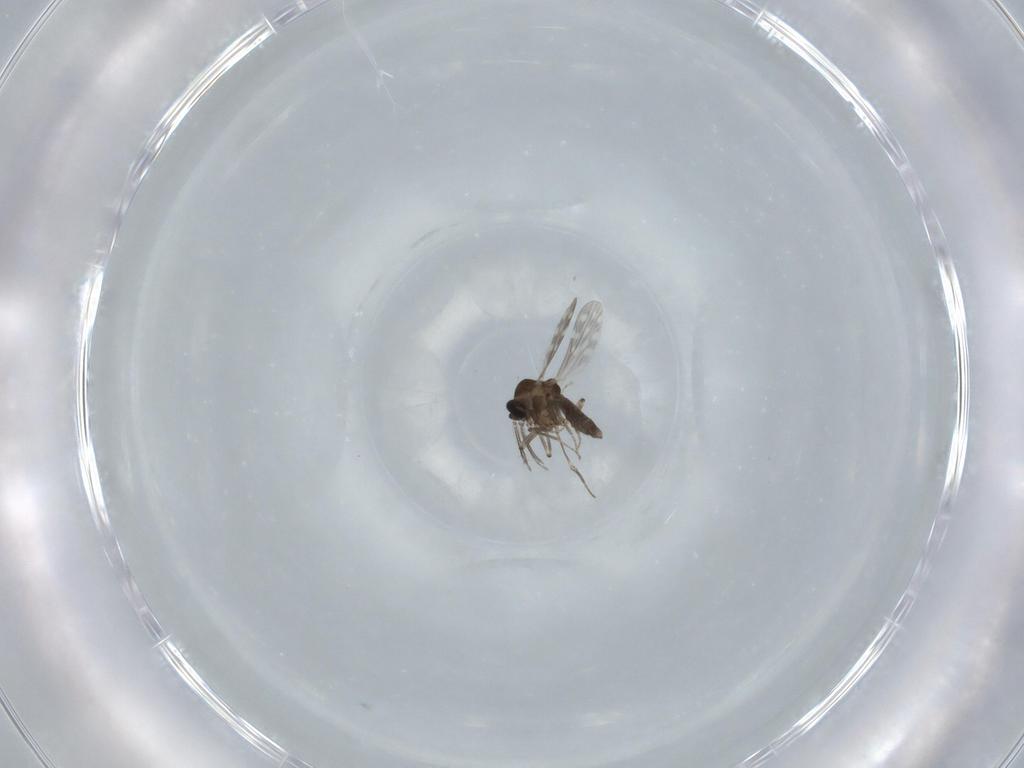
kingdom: Animalia
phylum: Arthropoda
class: Insecta
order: Diptera
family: Ceratopogonidae
